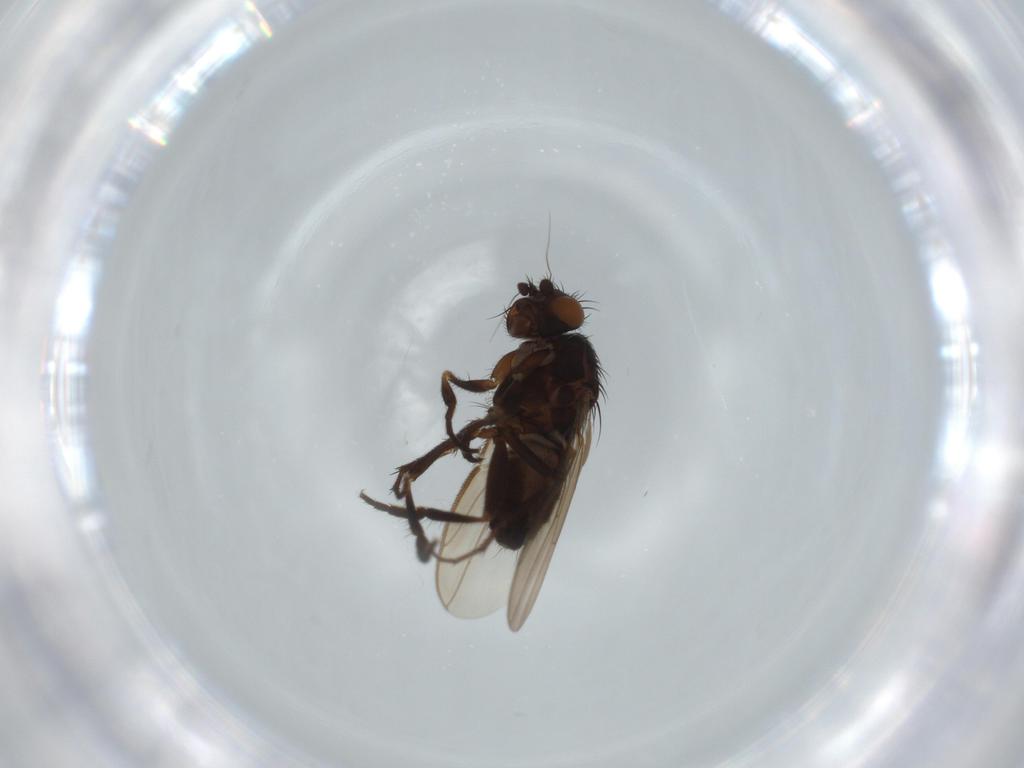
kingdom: Animalia
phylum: Arthropoda
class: Insecta
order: Diptera
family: Sphaeroceridae
